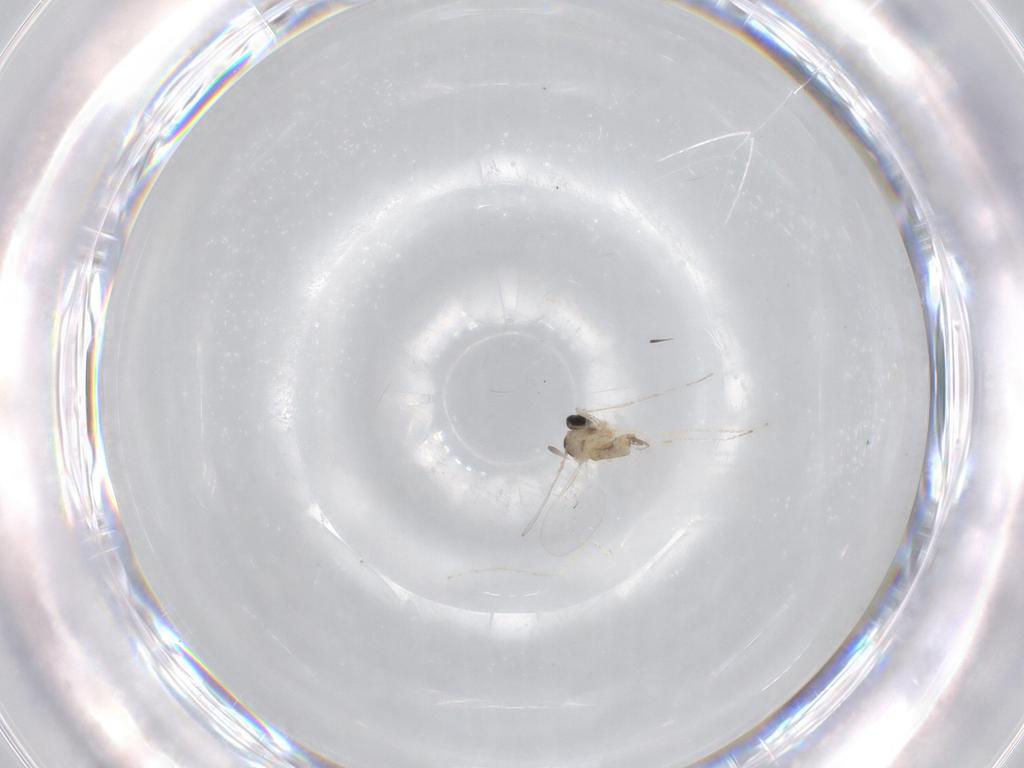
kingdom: Animalia
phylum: Arthropoda
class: Insecta
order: Diptera
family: Cecidomyiidae
